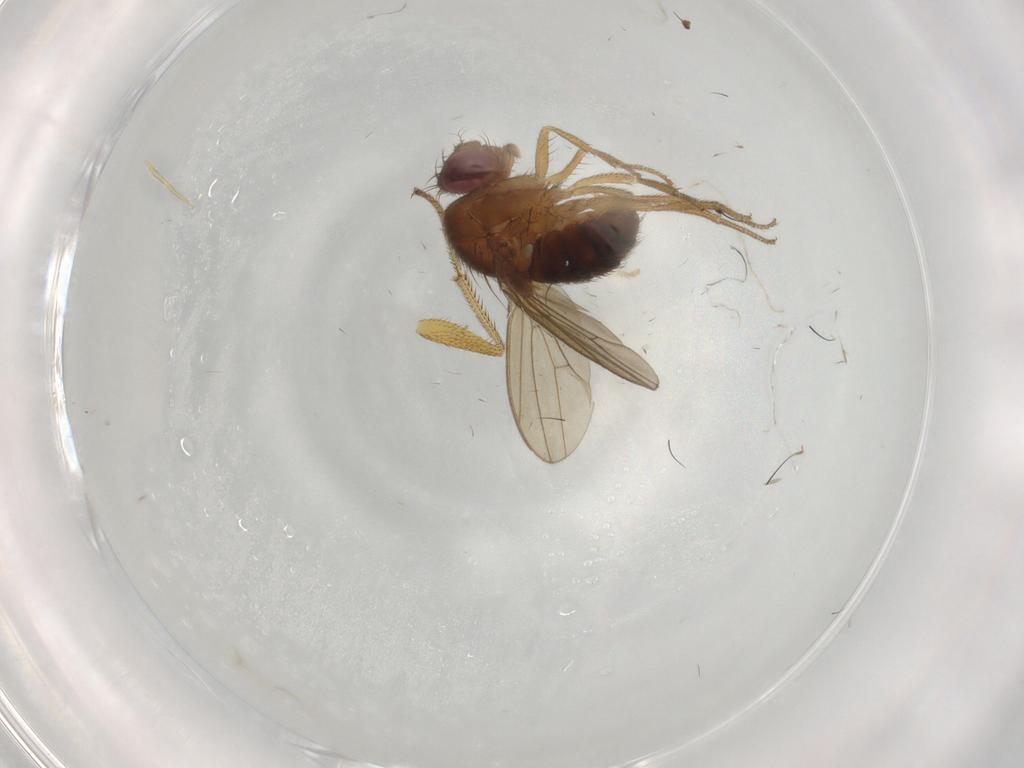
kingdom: Animalia
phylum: Arthropoda
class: Insecta
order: Diptera
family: Drosophilidae
